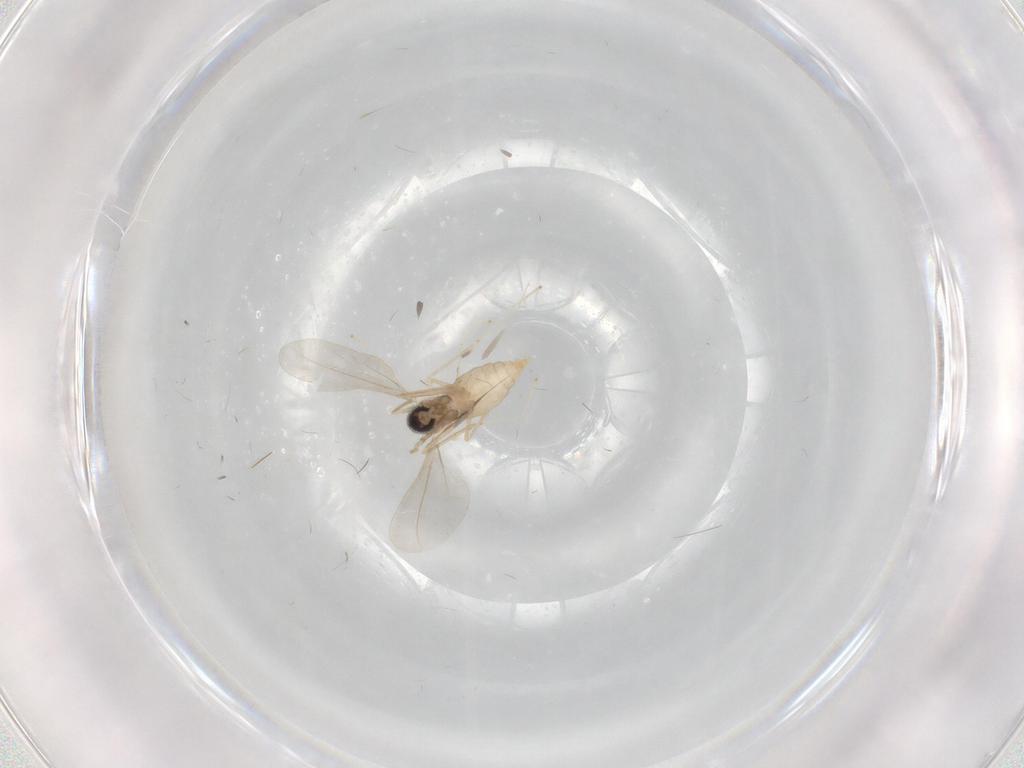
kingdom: Animalia
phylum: Arthropoda
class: Insecta
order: Diptera
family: Cecidomyiidae
